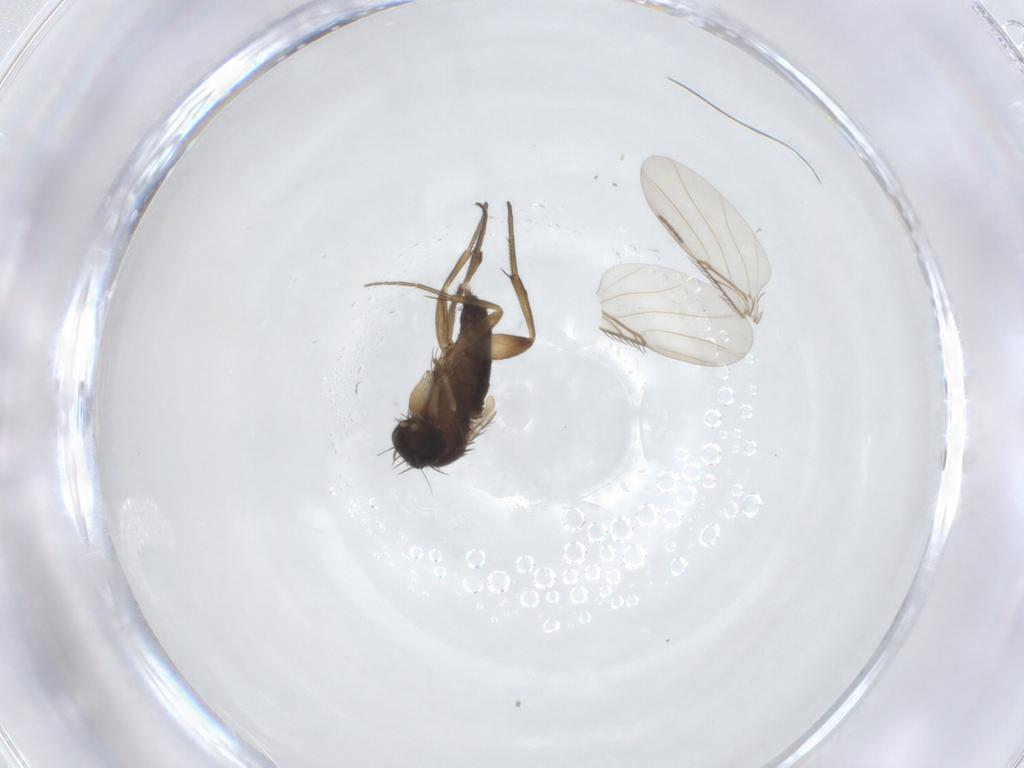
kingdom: Animalia
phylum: Arthropoda
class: Insecta
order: Diptera
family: Phoridae
